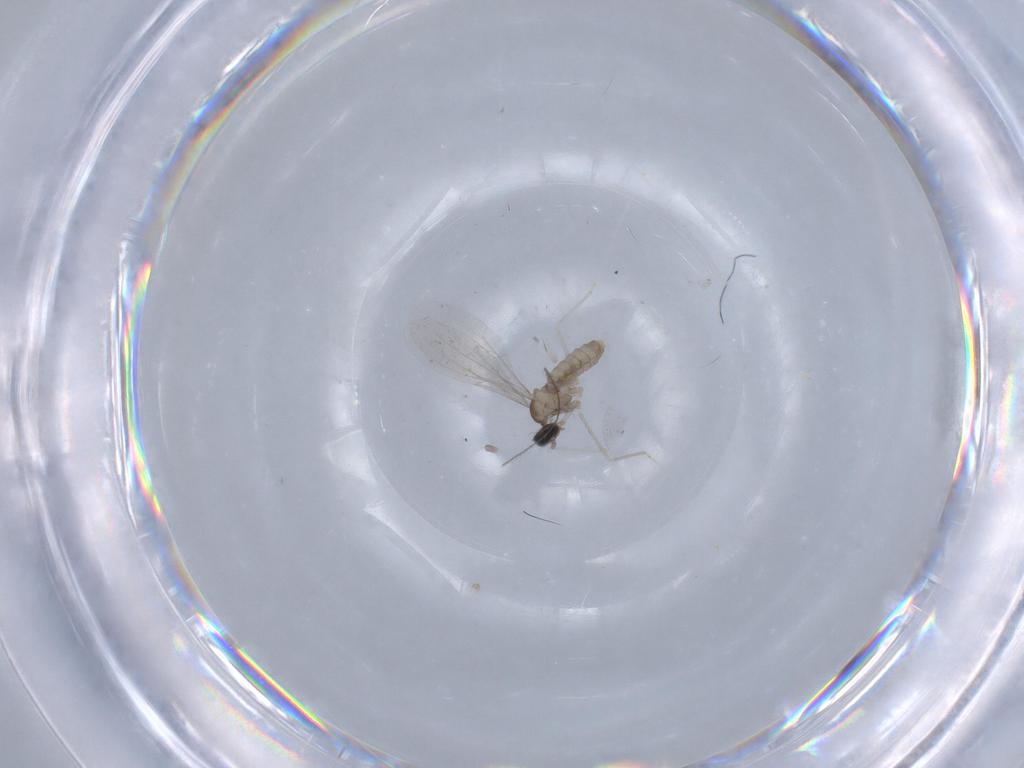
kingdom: Animalia
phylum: Arthropoda
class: Insecta
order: Diptera
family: Cecidomyiidae
